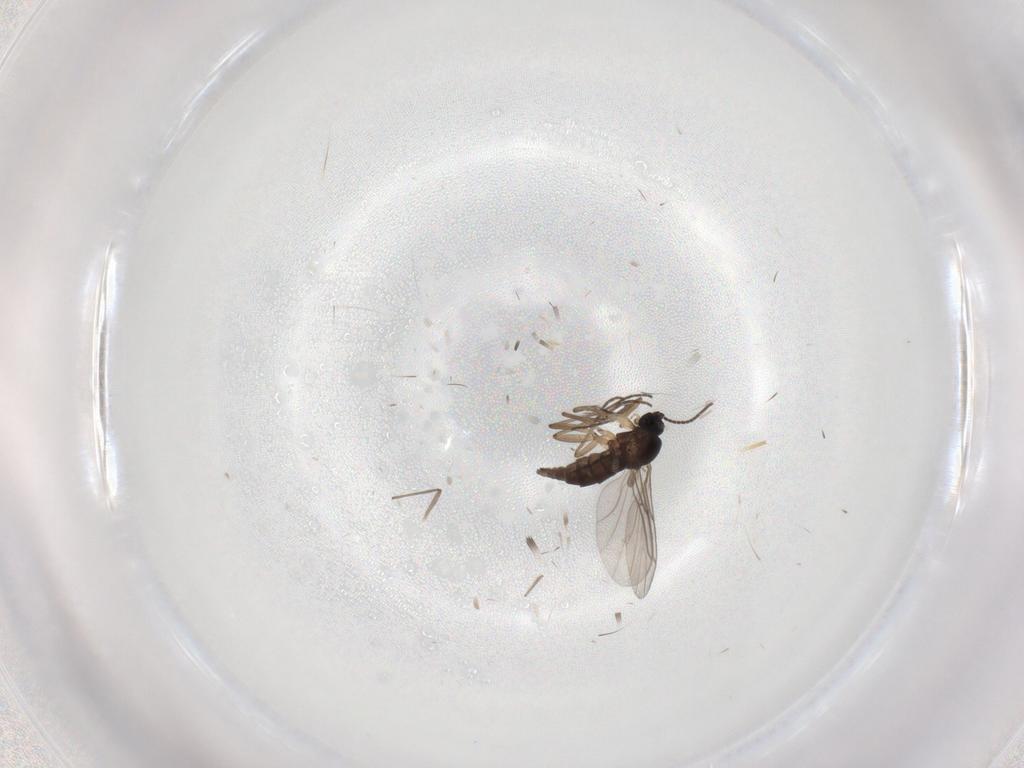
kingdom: Animalia
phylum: Arthropoda
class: Insecta
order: Diptera
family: Sciaridae
